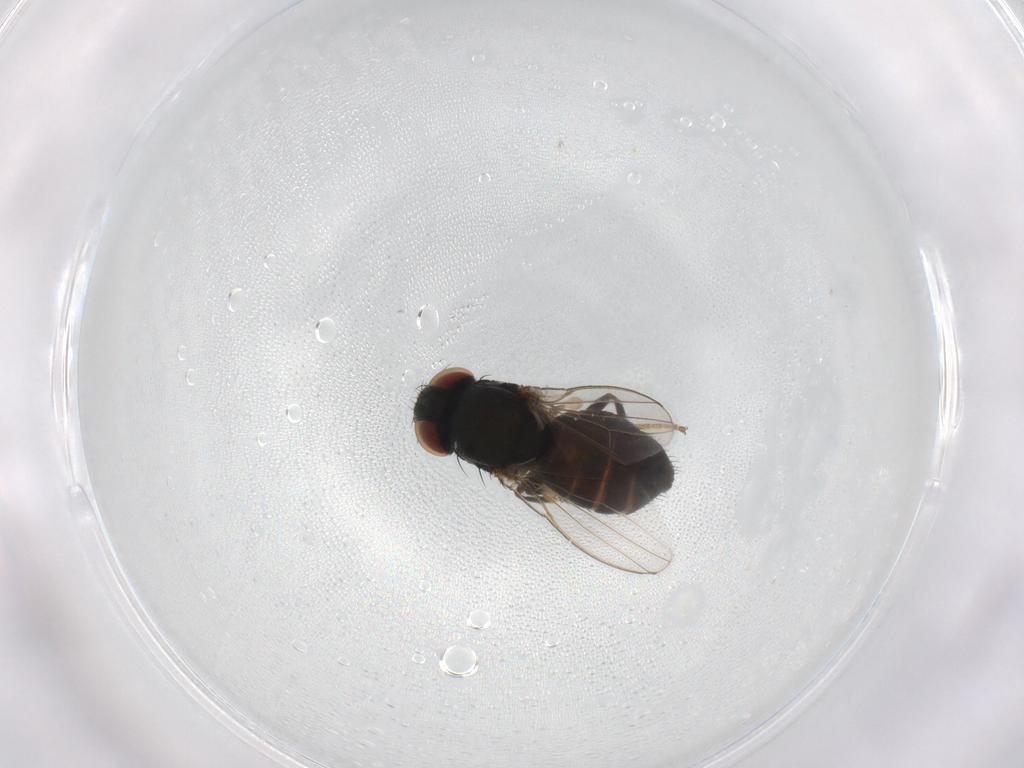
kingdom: Animalia
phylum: Arthropoda
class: Insecta
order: Diptera
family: Milichiidae
